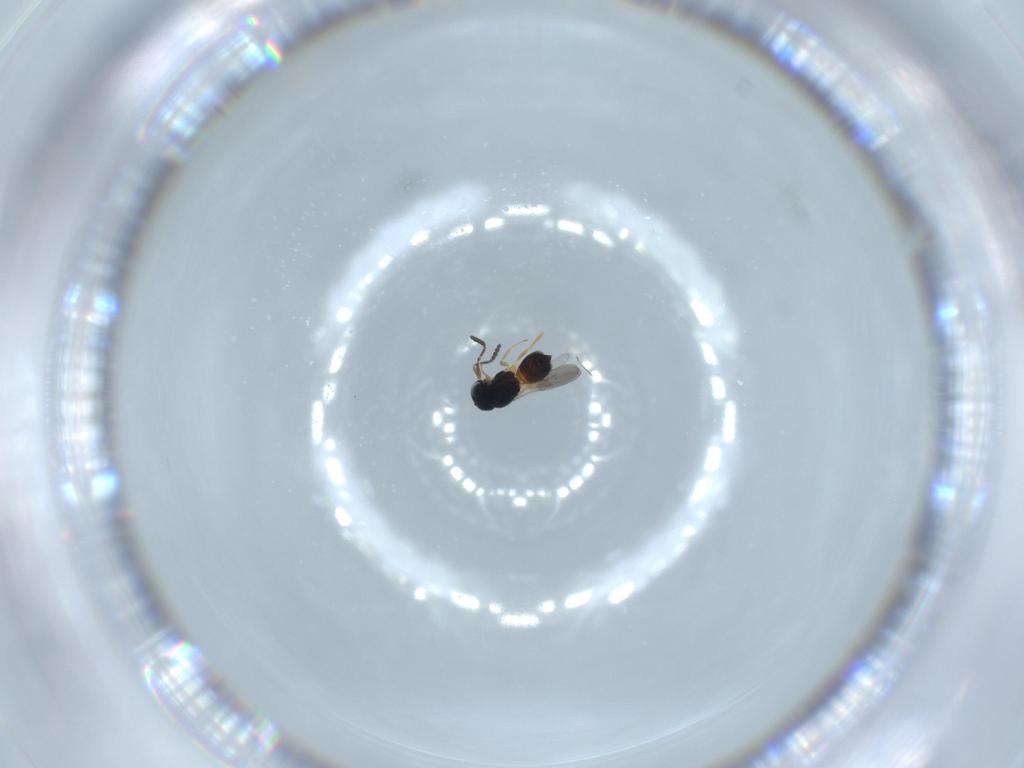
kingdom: Animalia
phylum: Arthropoda
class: Insecta
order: Hymenoptera
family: Scelionidae
